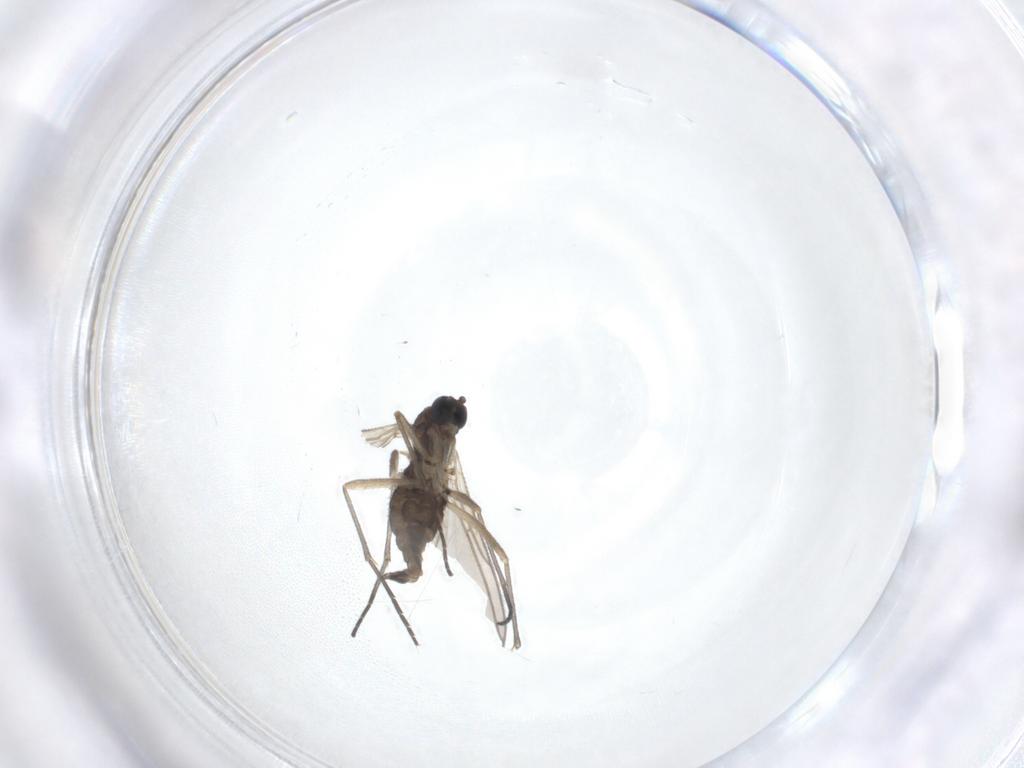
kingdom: Animalia
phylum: Arthropoda
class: Insecta
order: Diptera
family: Sciaridae
